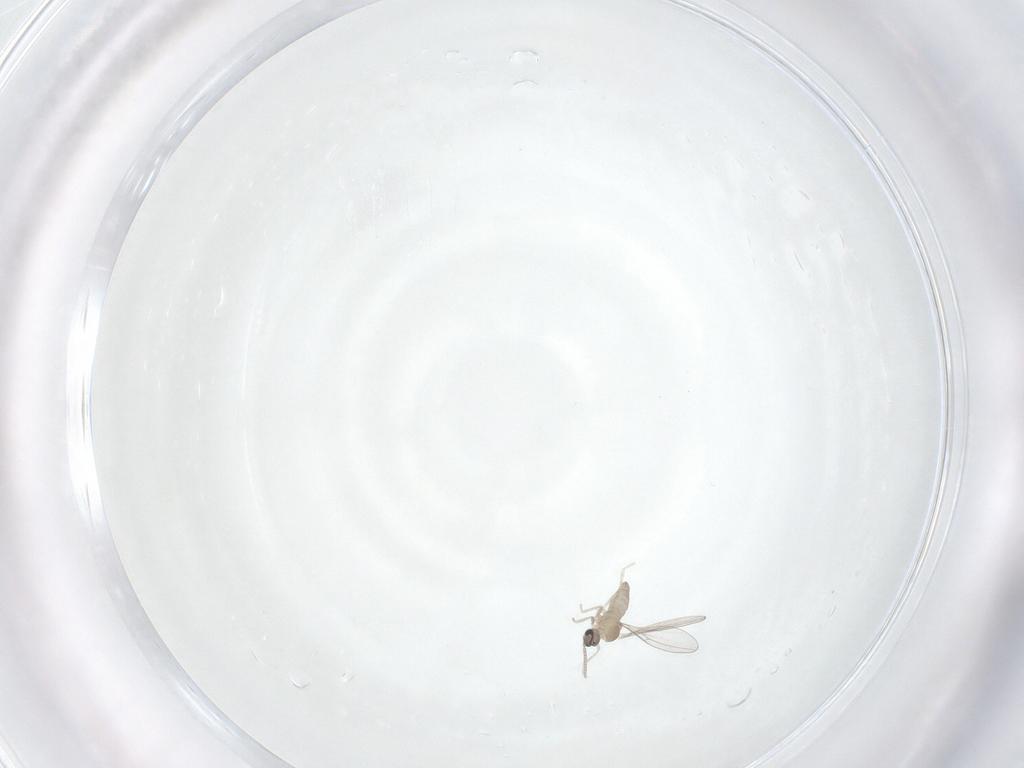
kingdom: Animalia
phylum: Arthropoda
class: Insecta
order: Diptera
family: Cecidomyiidae
